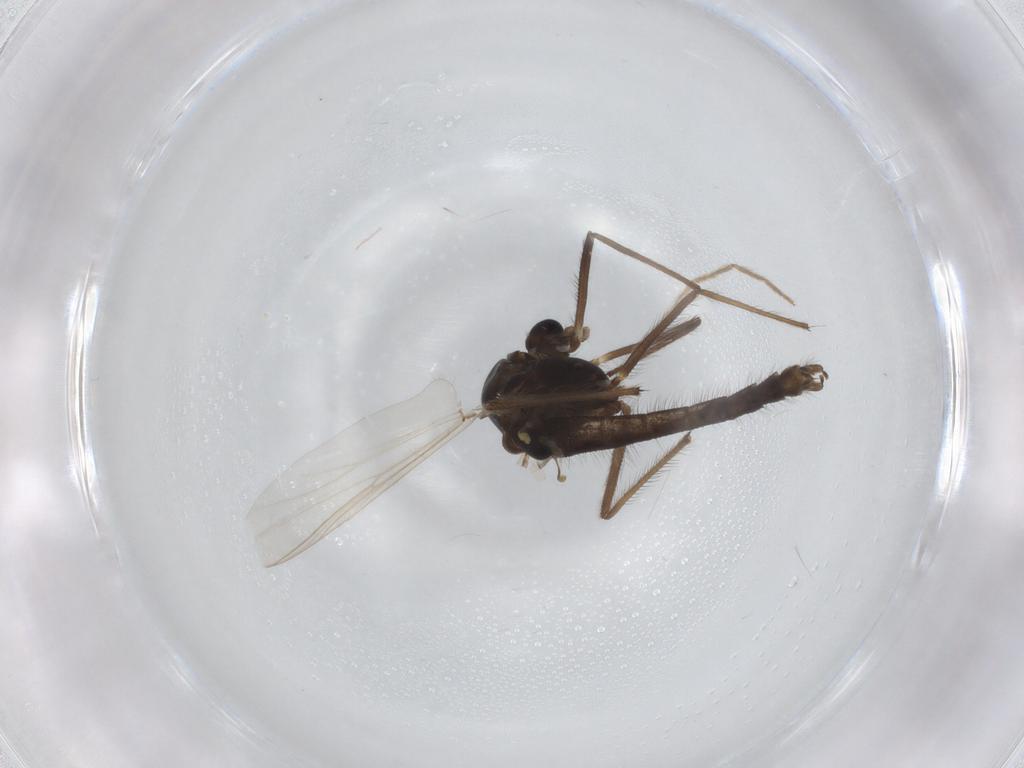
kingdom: Animalia
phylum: Arthropoda
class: Insecta
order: Diptera
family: Chironomidae
